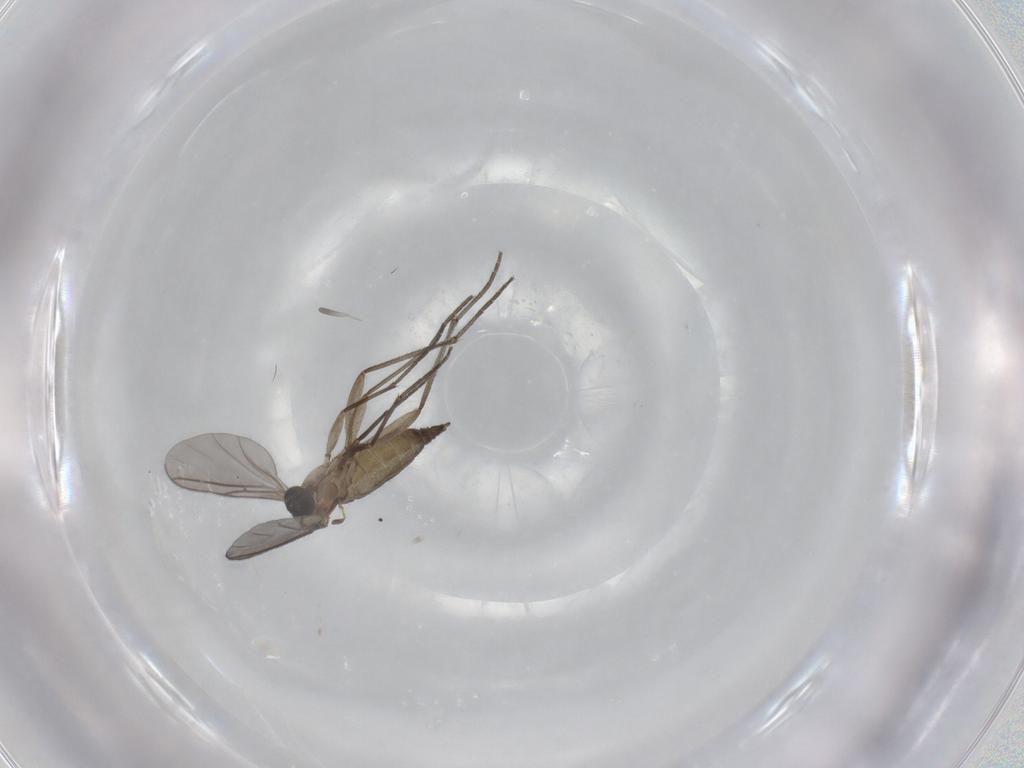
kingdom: Animalia
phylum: Arthropoda
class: Insecta
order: Diptera
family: Sciaridae
